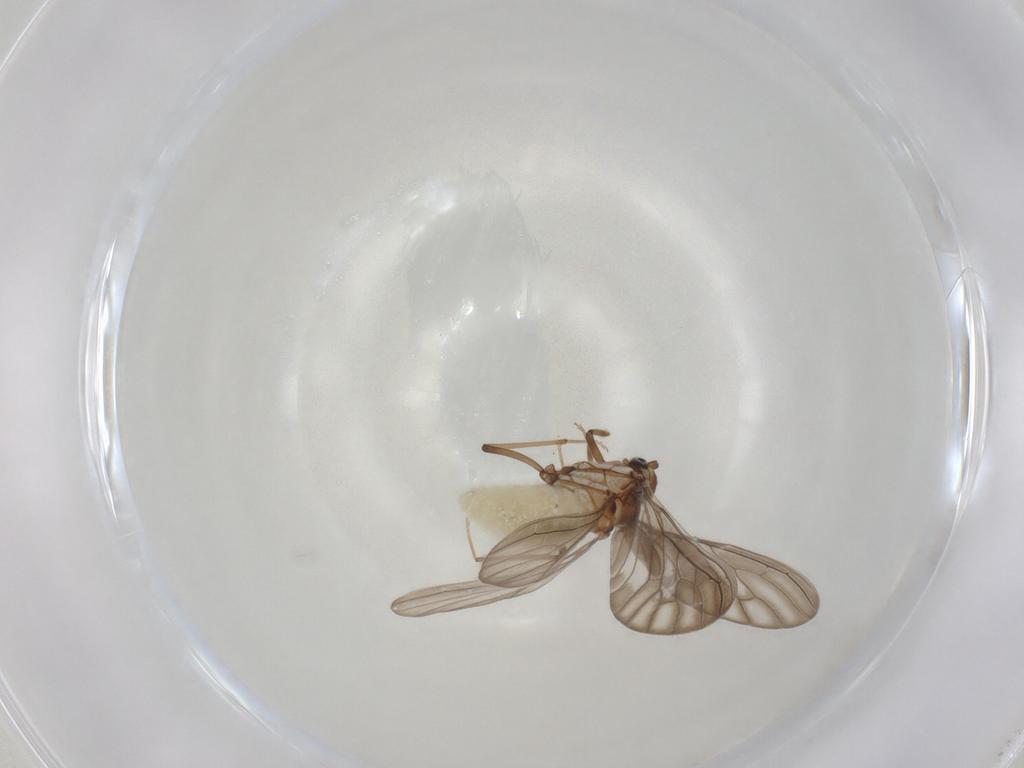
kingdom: Animalia
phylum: Arthropoda
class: Insecta
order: Neuroptera
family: Coniopterygidae
